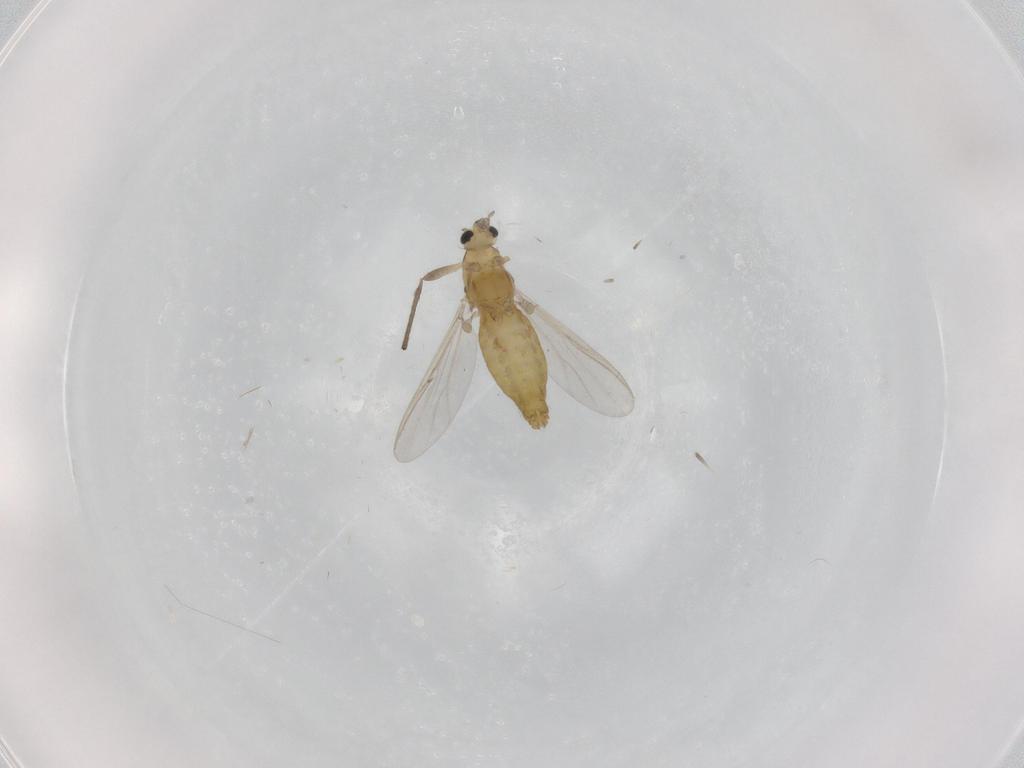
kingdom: Animalia
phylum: Arthropoda
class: Insecta
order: Diptera
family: Chironomidae
